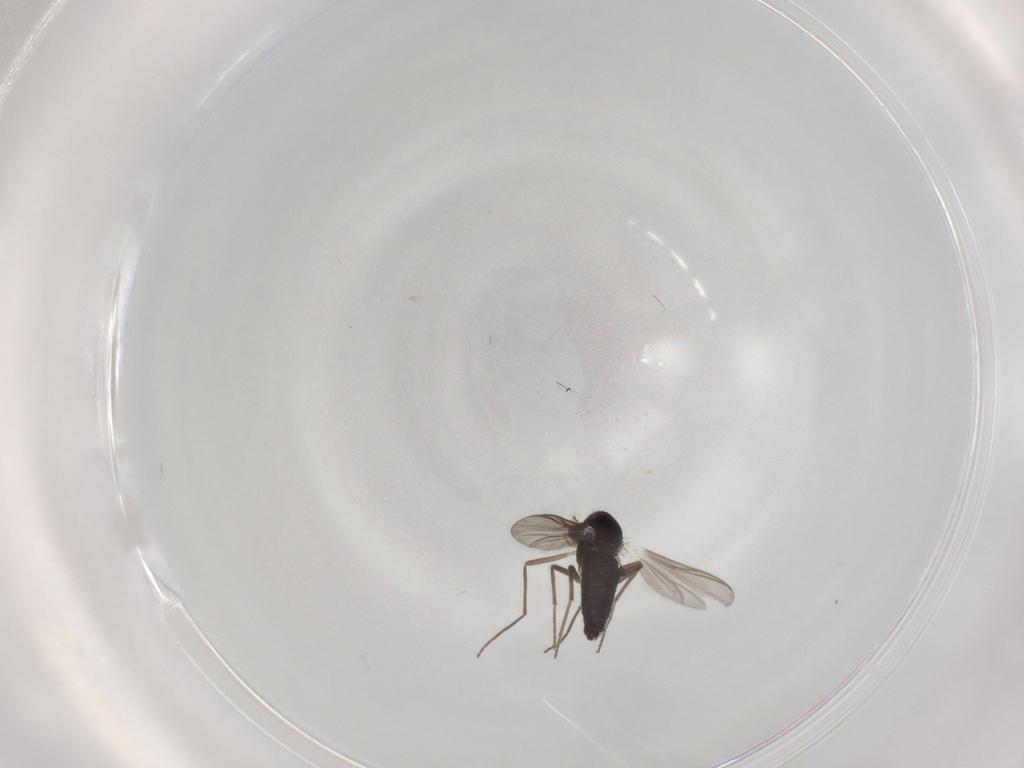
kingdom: Animalia
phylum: Arthropoda
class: Insecta
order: Diptera
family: Chironomidae
